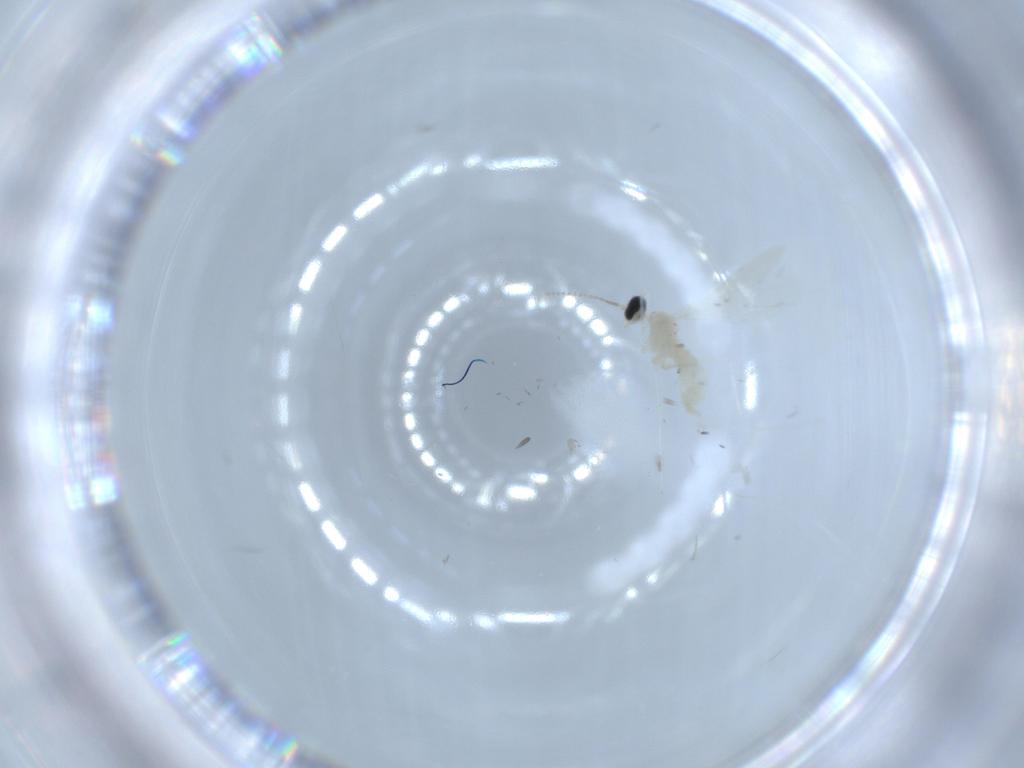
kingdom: Animalia
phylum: Arthropoda
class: Insecta
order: Diptera
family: Cecidomyiidae
